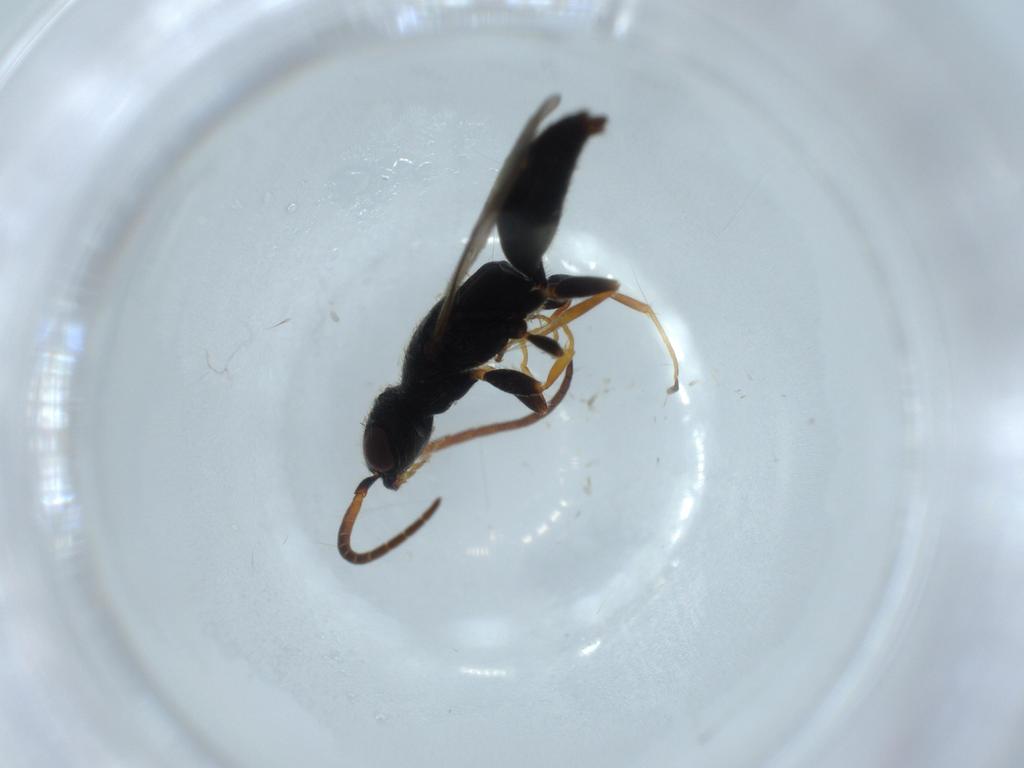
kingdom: Animalia
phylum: Arthropoda
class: Insecta
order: Hymenoptera
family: Bethylidae
